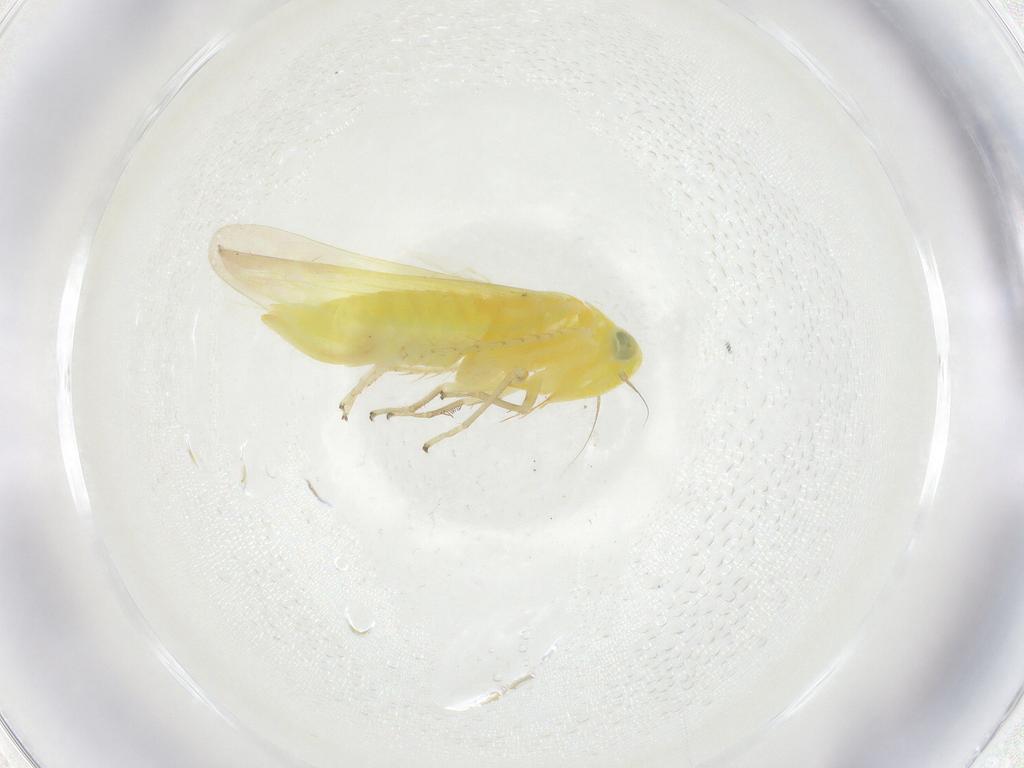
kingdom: Animalia
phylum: Arthropoda
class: Insecta
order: Hemiptera
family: Cicadellidae
